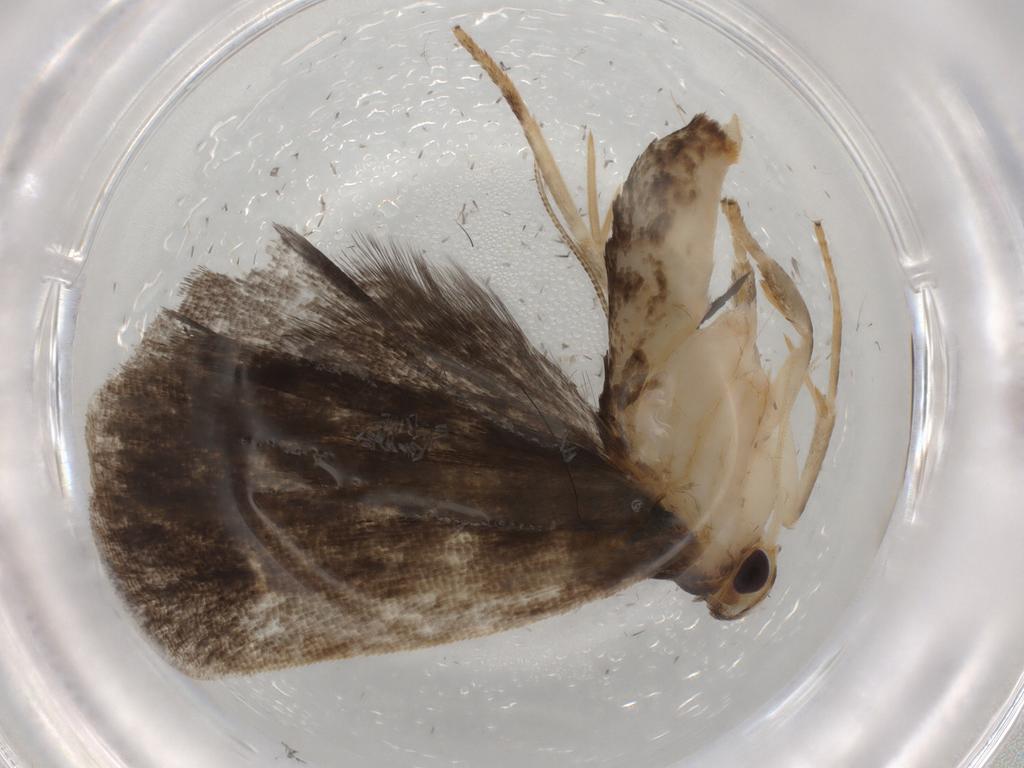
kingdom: Animalia
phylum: Arthropoda
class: Insecta
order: Lepidoptera
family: Gelechiidae
